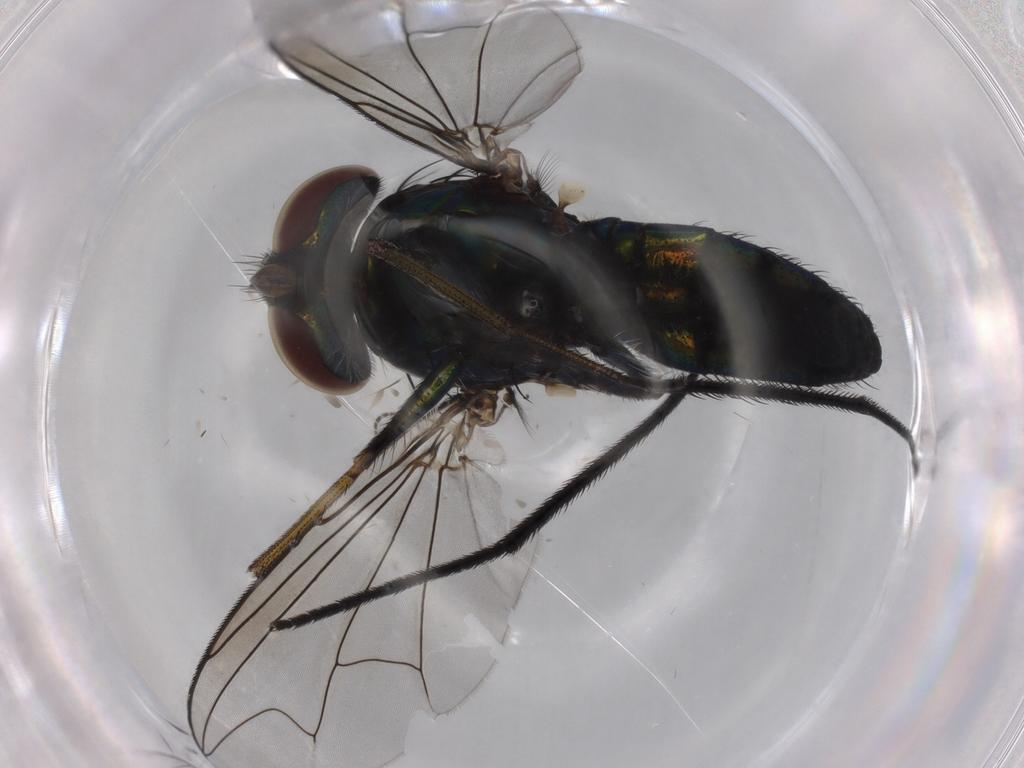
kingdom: Animalia
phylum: Arthropoda
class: Insecta
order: Diptera
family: Dolichopodidae
